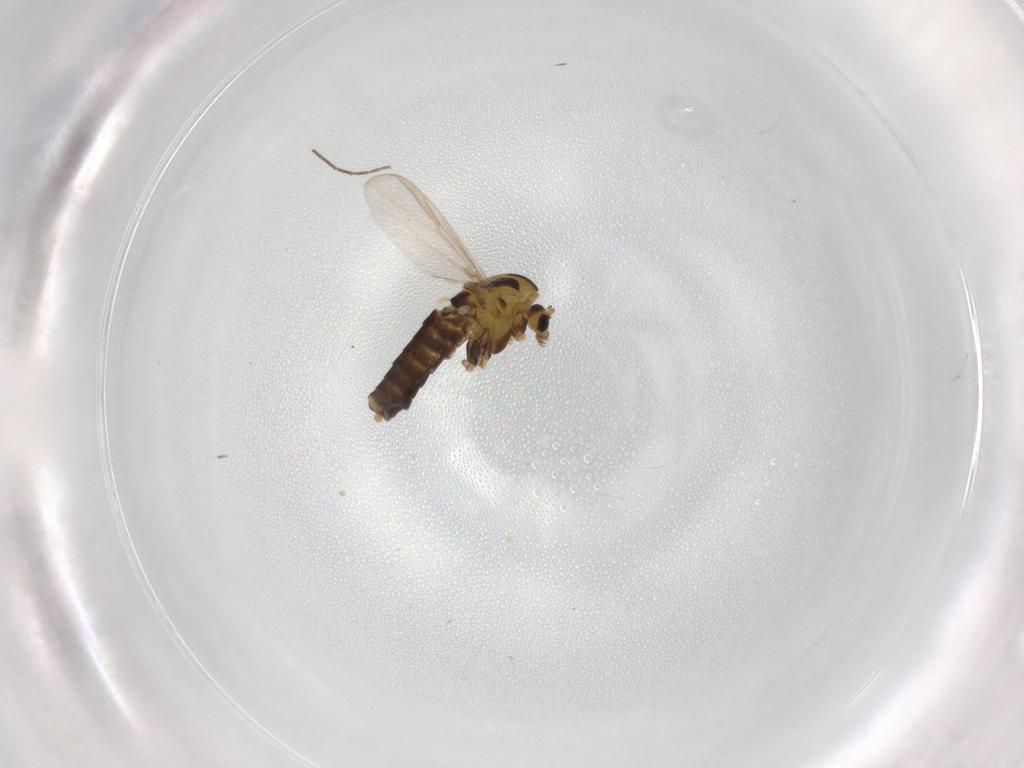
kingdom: Animalia
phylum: Arthropoda
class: Insecta
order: Diptera
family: Chironomidae
